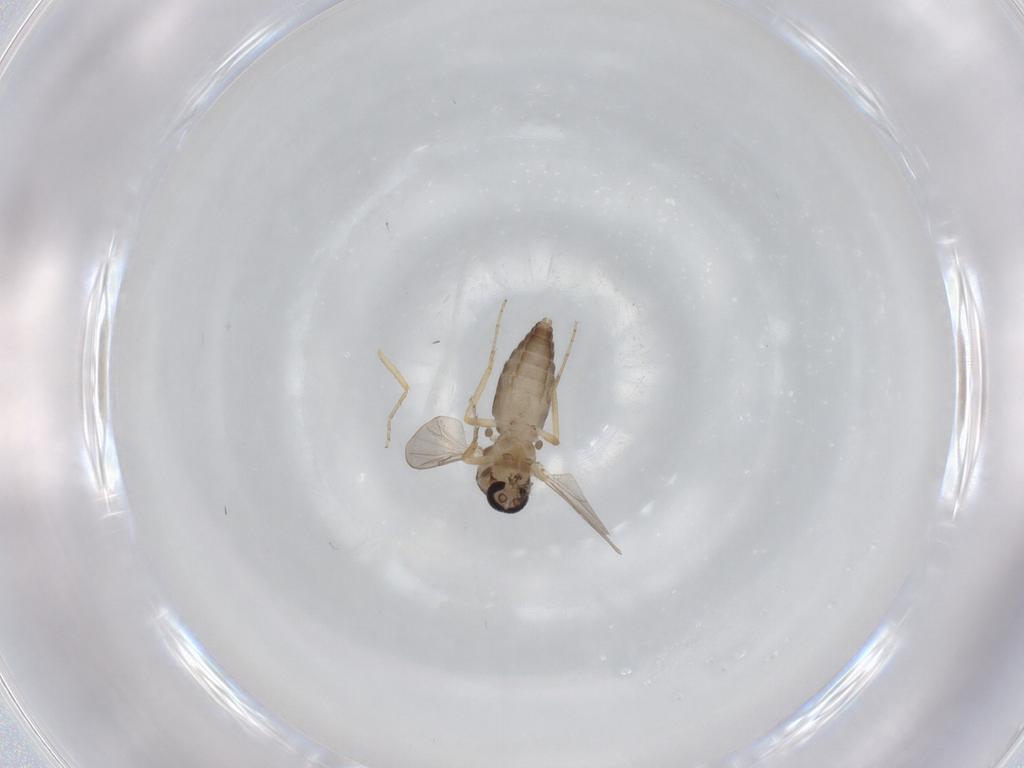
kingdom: Animalia
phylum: Arthropoda
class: Insecta
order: Diptera
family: Ceratopogonidae
